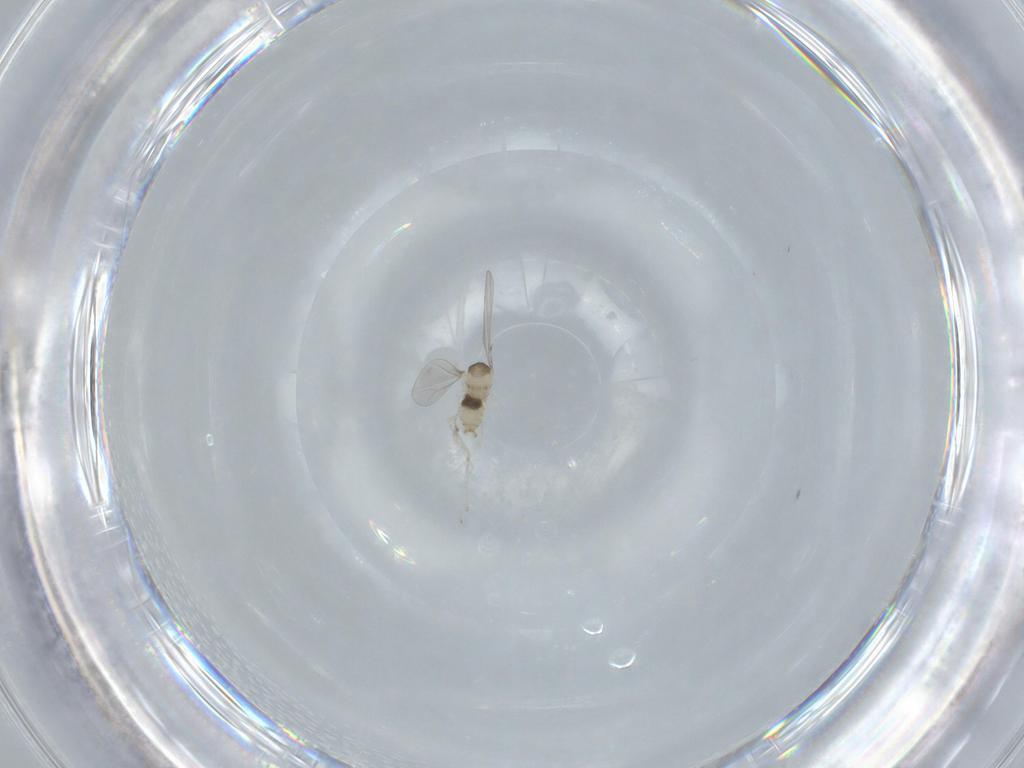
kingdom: Animalia
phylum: Arthropoda
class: Insecta
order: Diptera
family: Cecidomyiidae
